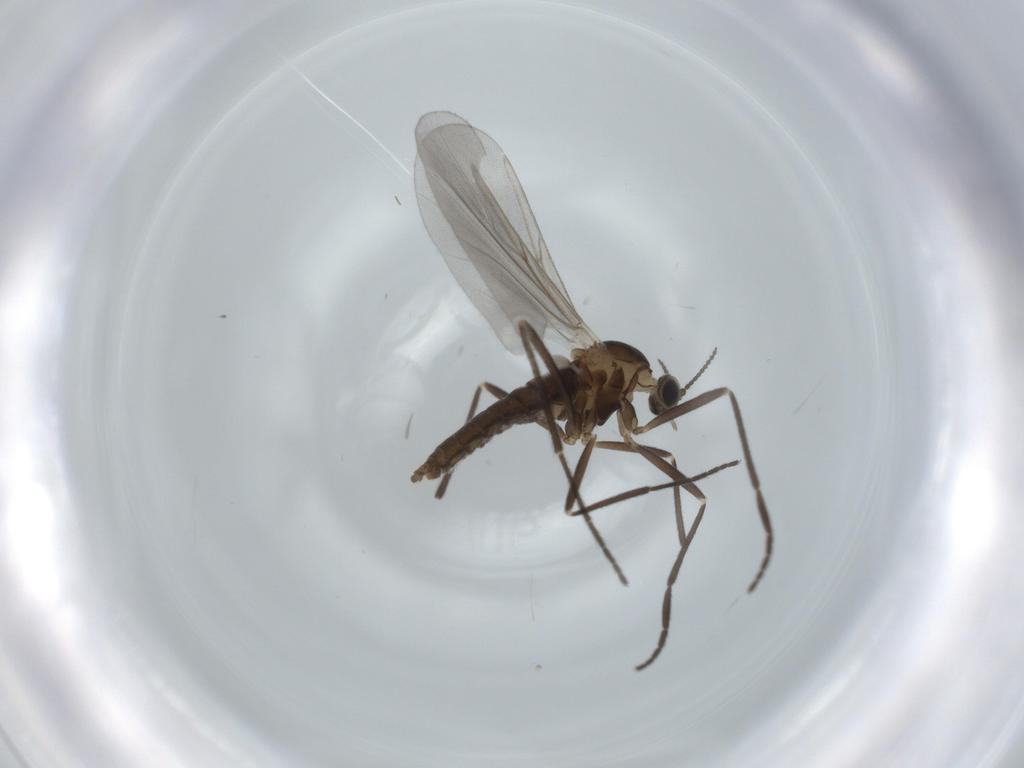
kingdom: Animalia
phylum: Arthropoda
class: Insecta
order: Diptera
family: Cecidomyiidae
